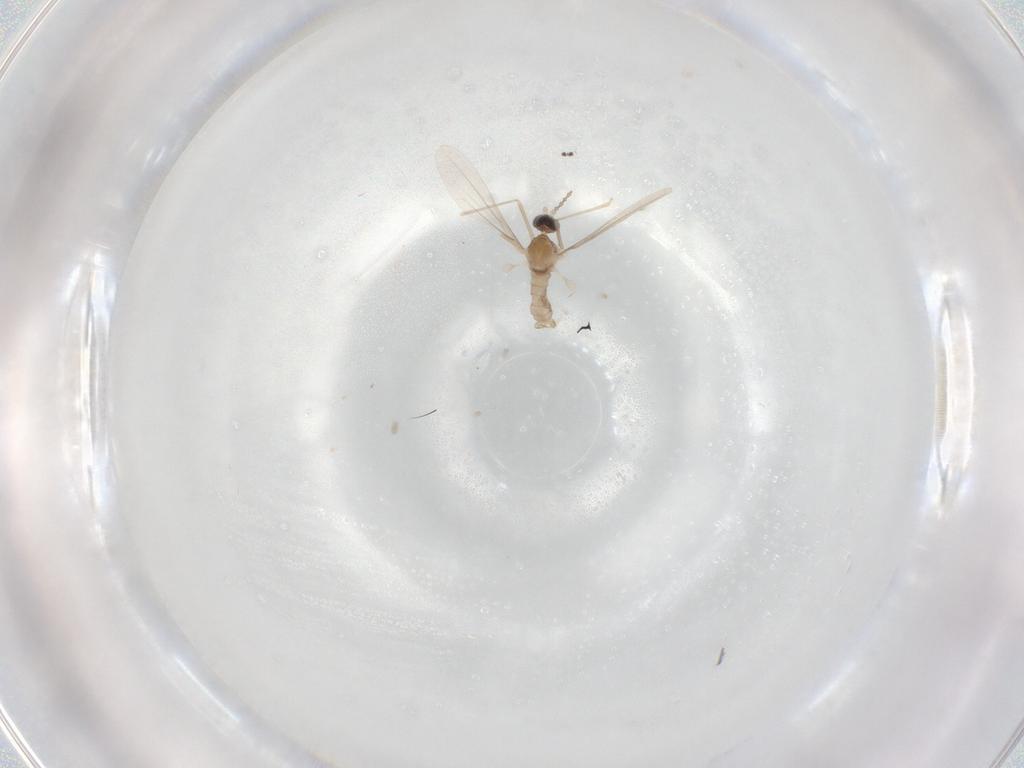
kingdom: Animalia
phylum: Arthropoda
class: Insecta
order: Diptera
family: Cecidomyiidae
